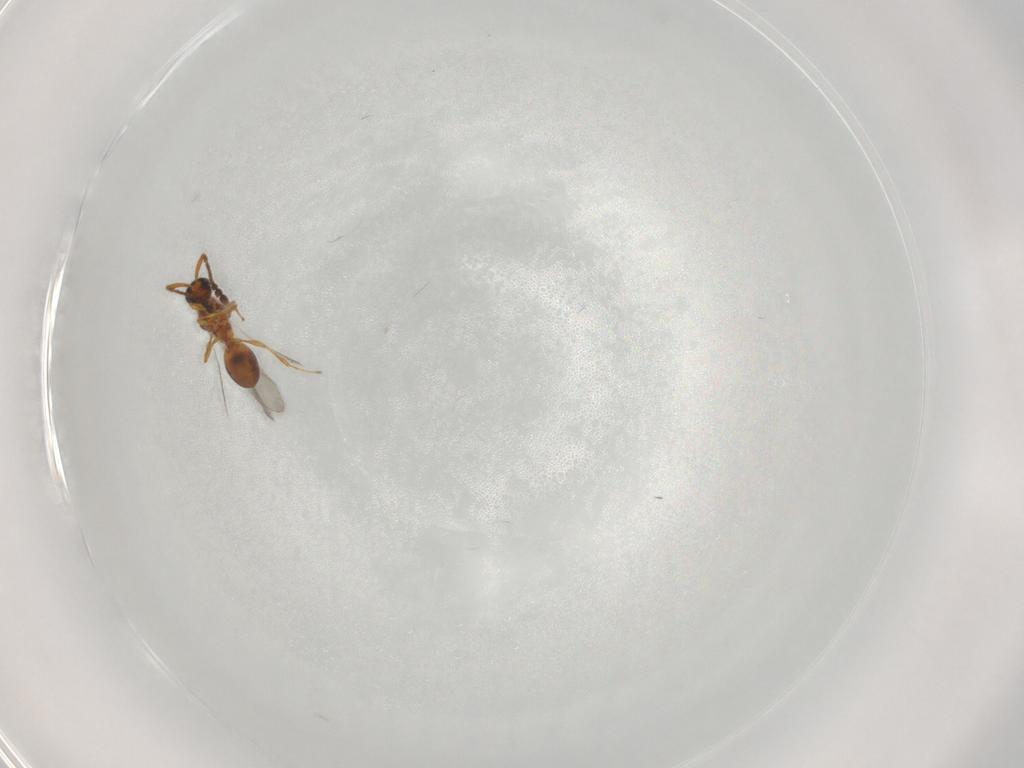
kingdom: Animalia
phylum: Arthropoda
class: Insecta
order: Hymenoptera
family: Diapriidae
